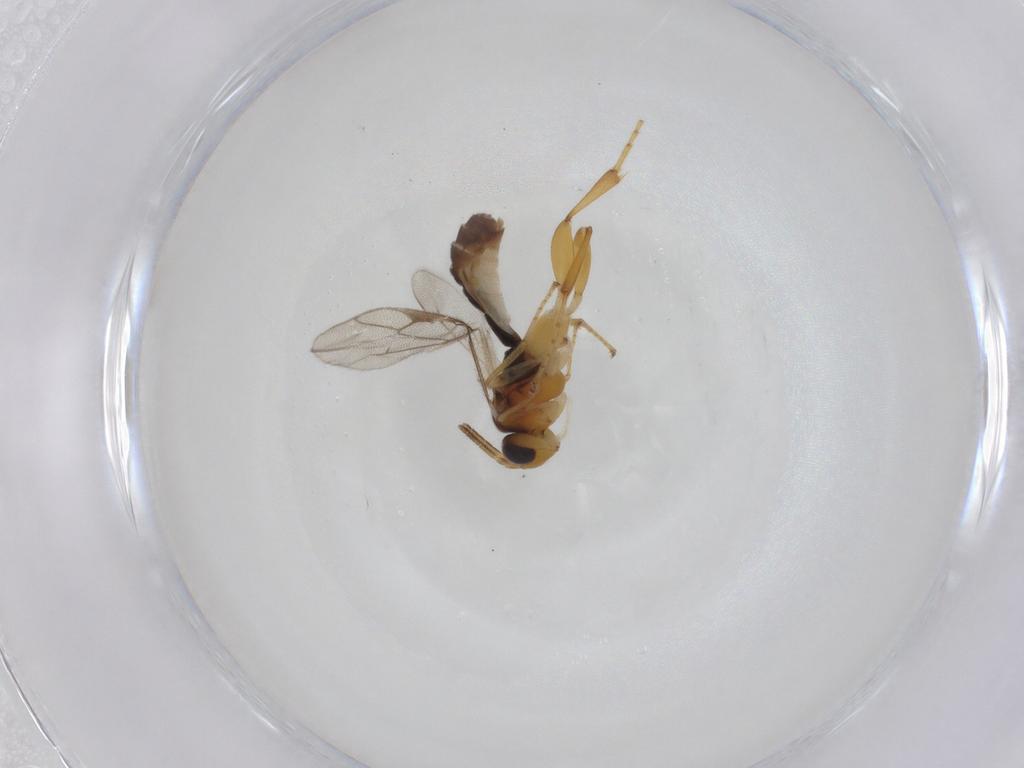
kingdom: Animalia
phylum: Arthropoda
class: Insecta
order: Hymenoptera
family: Ichneumonidae
